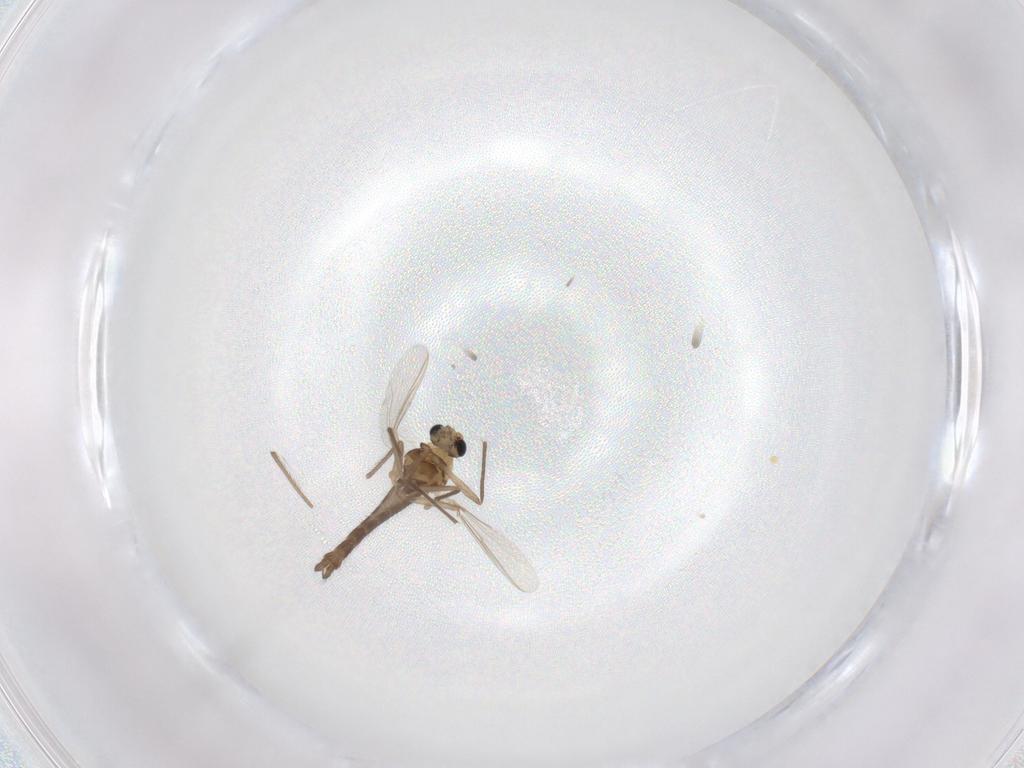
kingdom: Animalia
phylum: Arthropoda
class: Insecta
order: Diptera
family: Chironomidae
